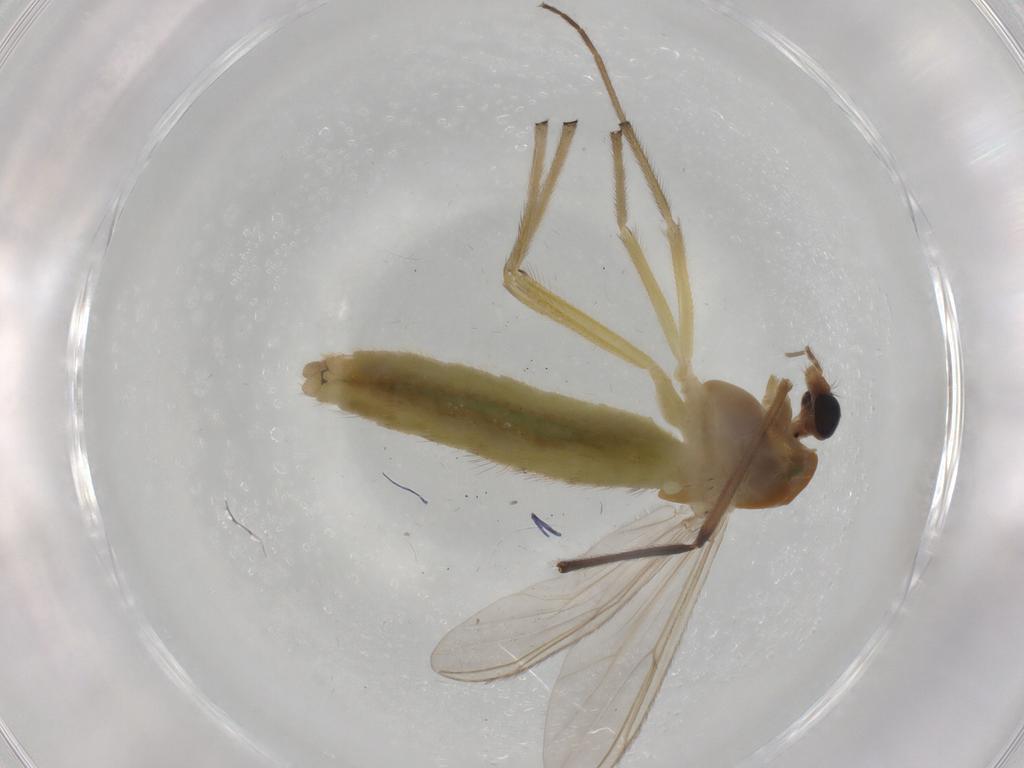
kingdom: Animalia
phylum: Arthropoda
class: Insecta
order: Diptera
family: Chironomidae
